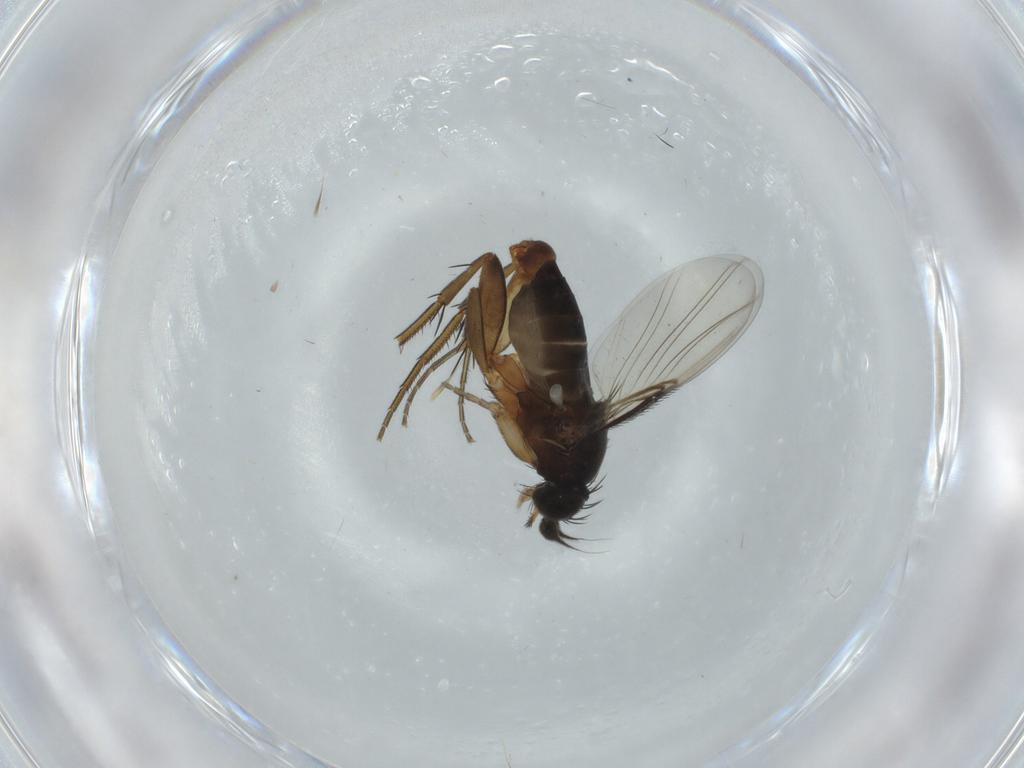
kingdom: Animalia
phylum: Arthropoda
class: Insecta
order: Diptera
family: Phoridae
